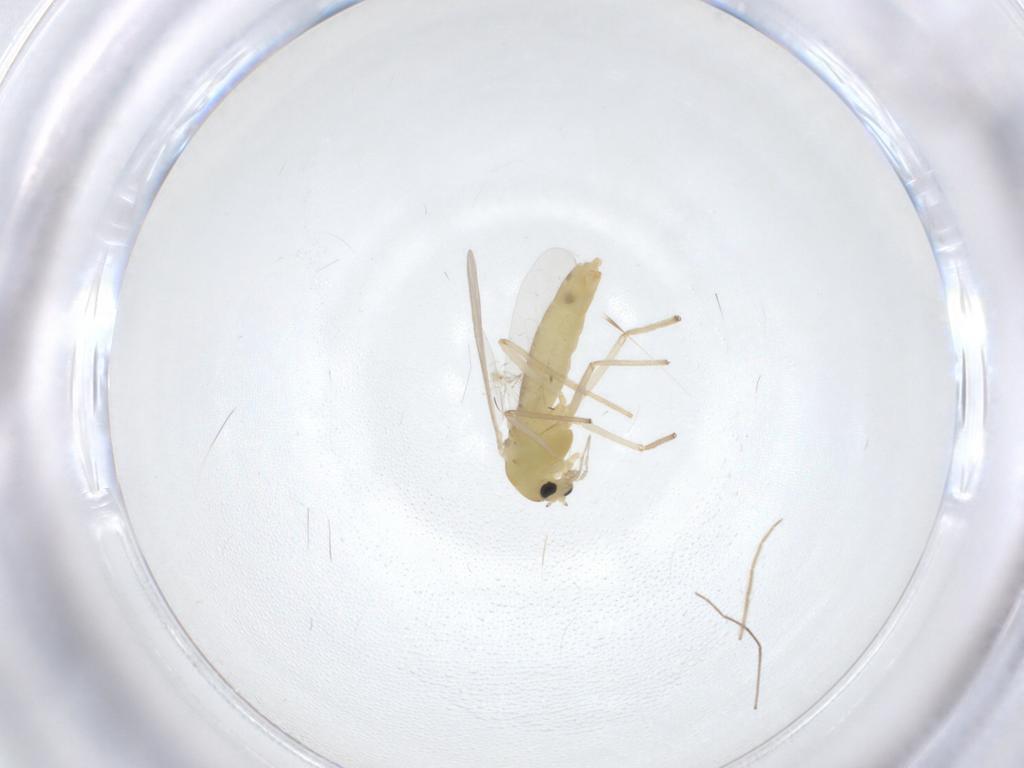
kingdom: Animalia
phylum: Arthropoda
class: Insecta
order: Diptera
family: Chironomidae
